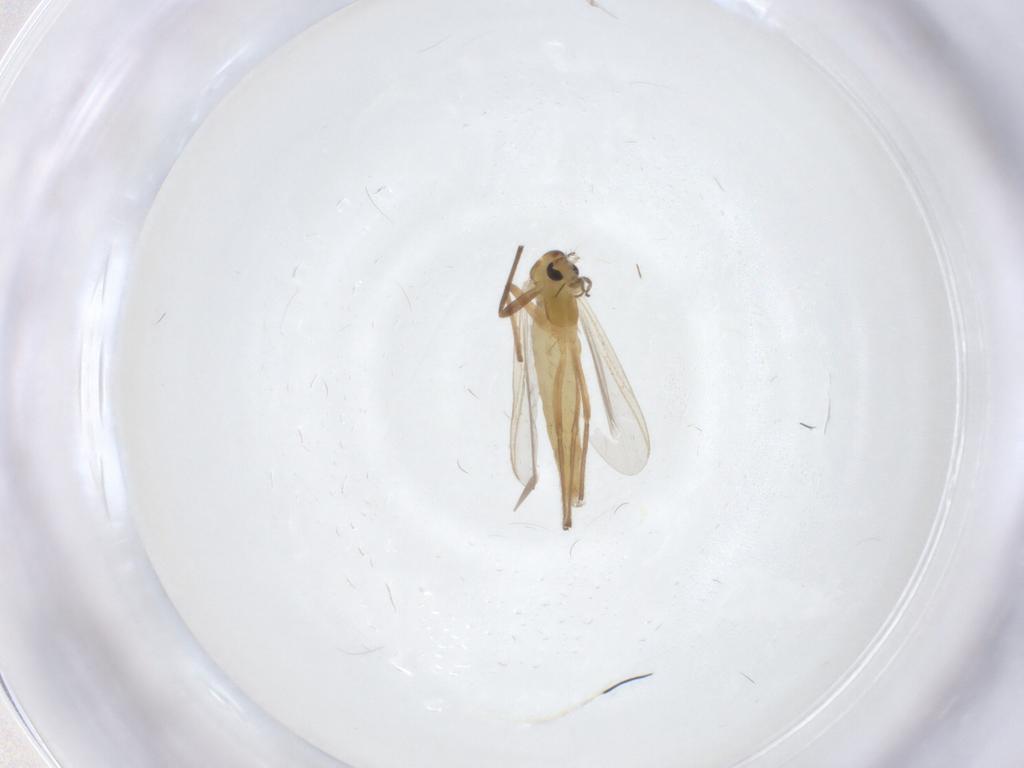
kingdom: Animalia
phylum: Arthropoda
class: Insecta
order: Diptera
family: Chironomidae
